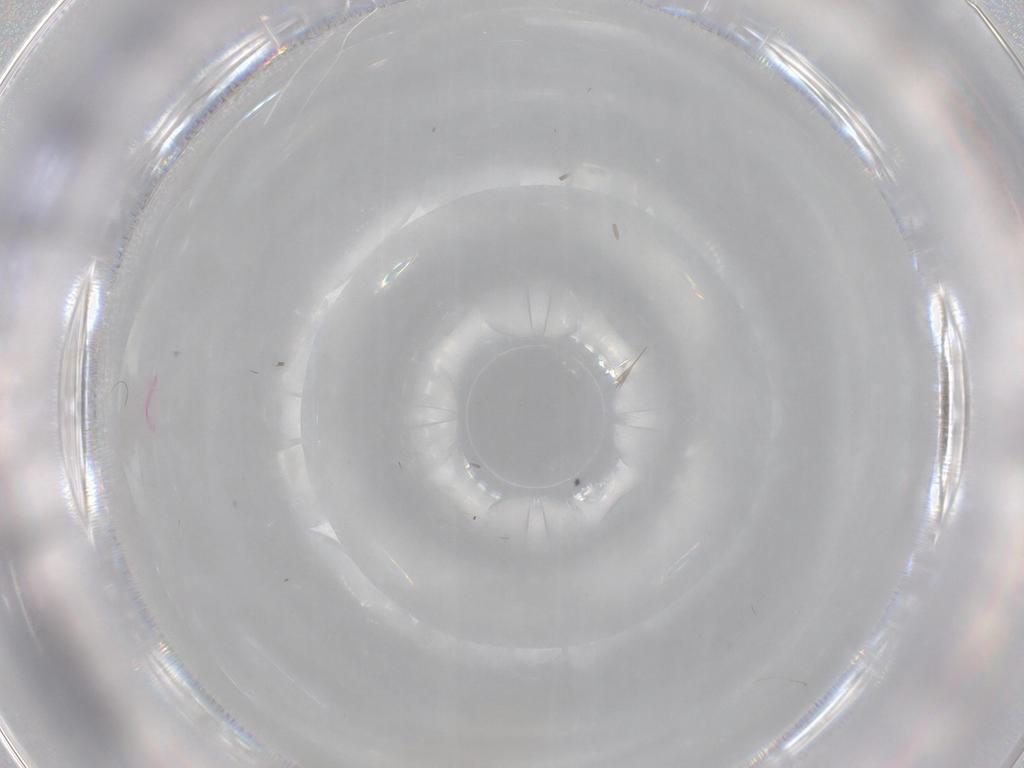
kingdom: Animalia
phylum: Arthropoda
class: Insecta
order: Diptera
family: Chironomidae
